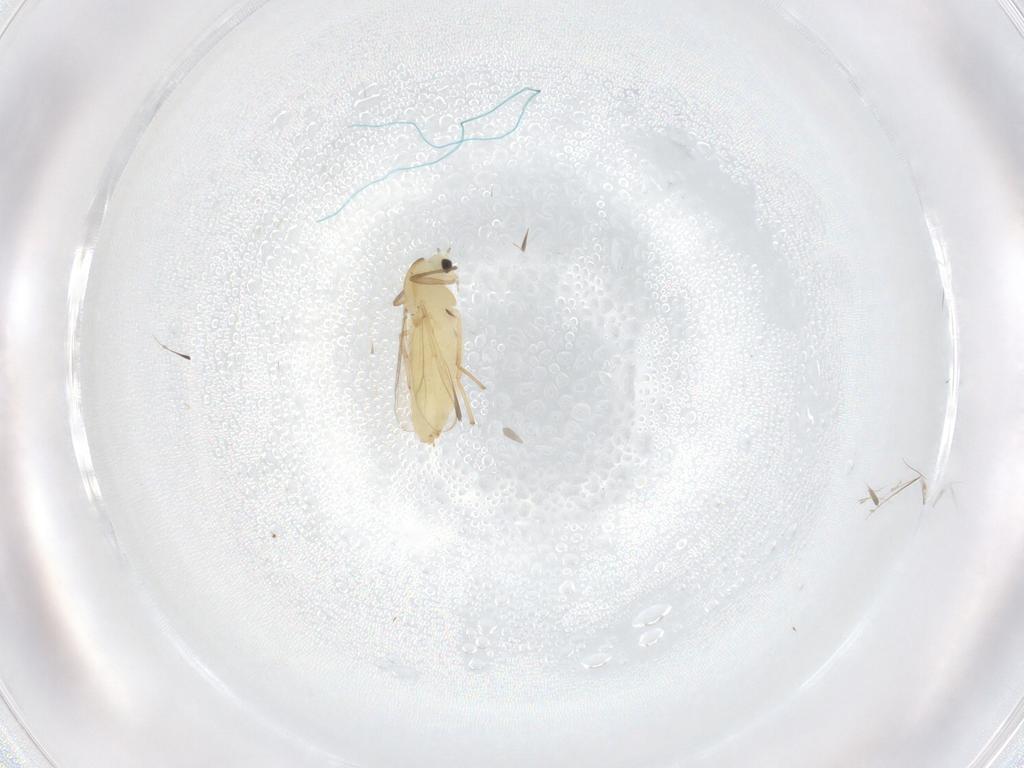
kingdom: Animalia
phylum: Arthropoda
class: Insecta
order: Diptera
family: Chironomidae
